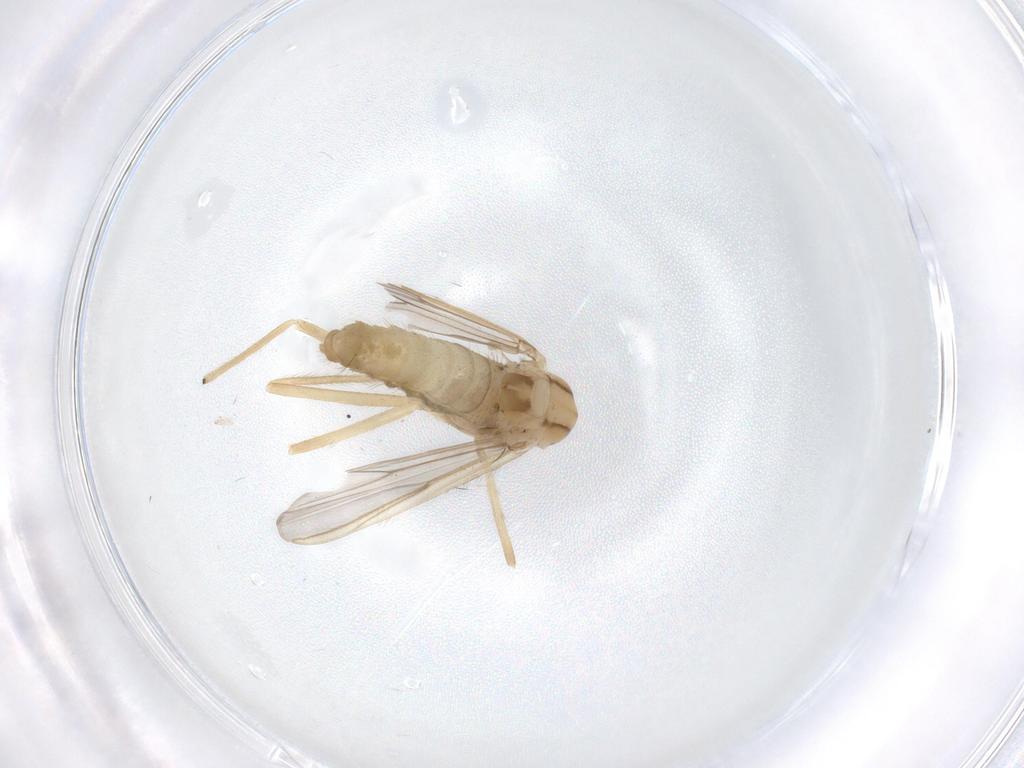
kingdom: Animalia
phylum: Arthropoda
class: Insecta
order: Diptera
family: Chironomidae
